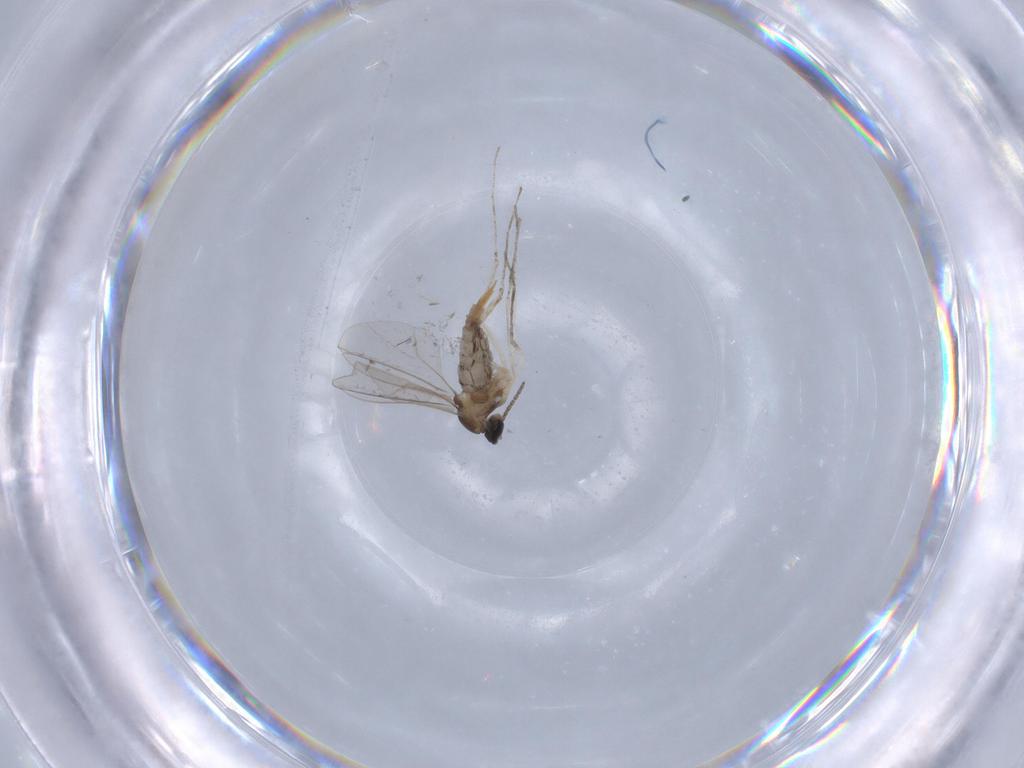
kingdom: Animalia
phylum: Arthropoda
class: Insecta
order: Diptera
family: Cecidomyiidae
